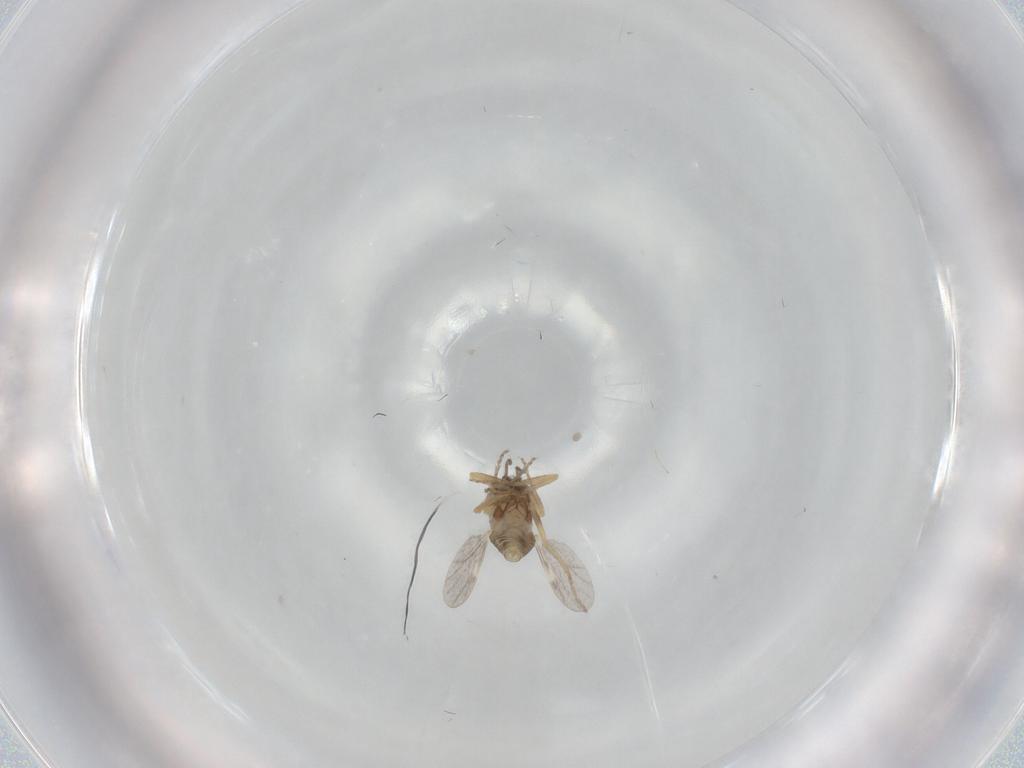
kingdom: Animalia
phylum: Arthropoda
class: Insecta
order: Diptera
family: Ceratopogonidae
